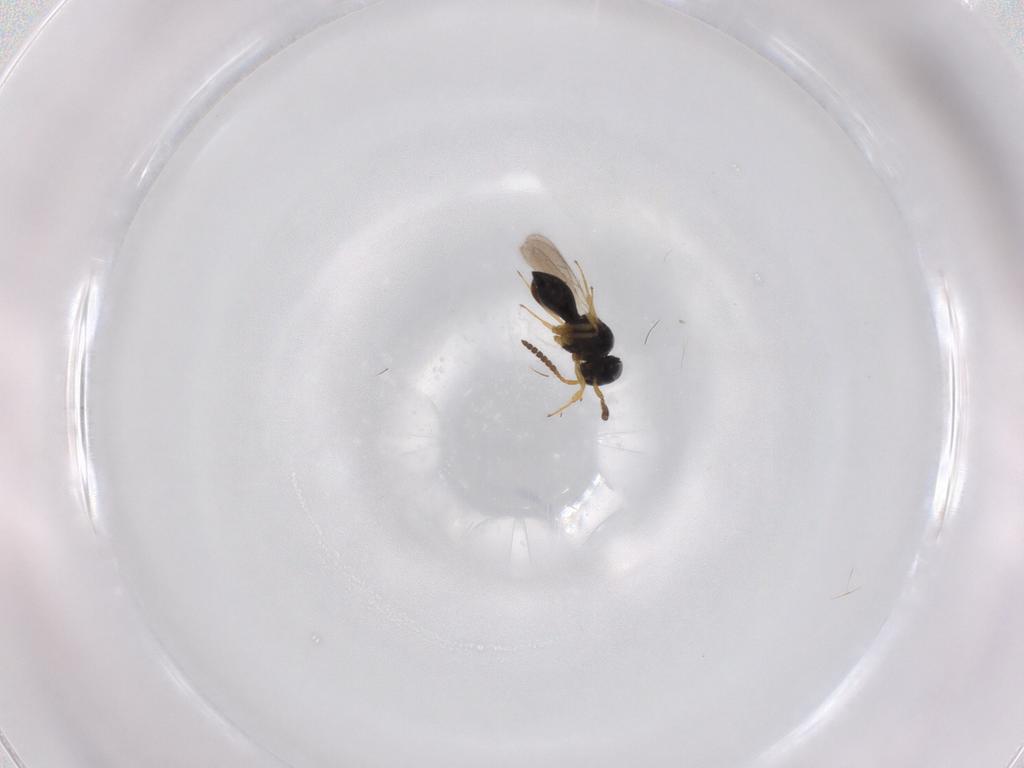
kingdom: Animalia
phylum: Arthropoda
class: Insecta
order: Hymenoptera
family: Scelionidae
